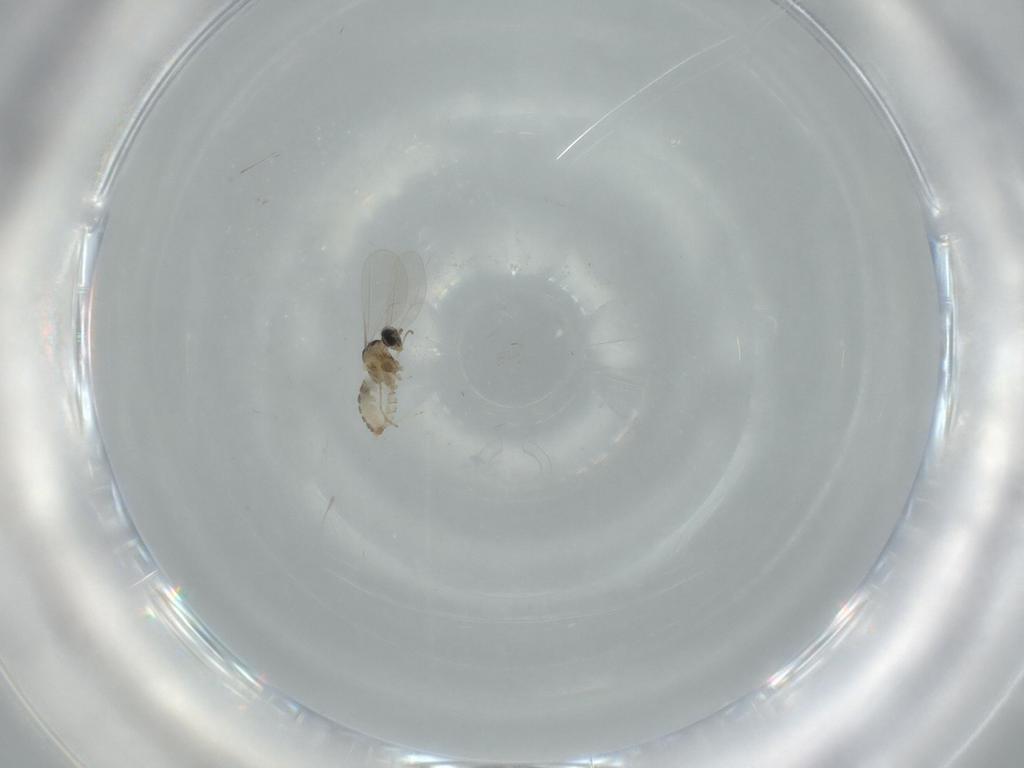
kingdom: Animalia
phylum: Arthropoda
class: Insecta
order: Diptera
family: Cecidomyiidae
